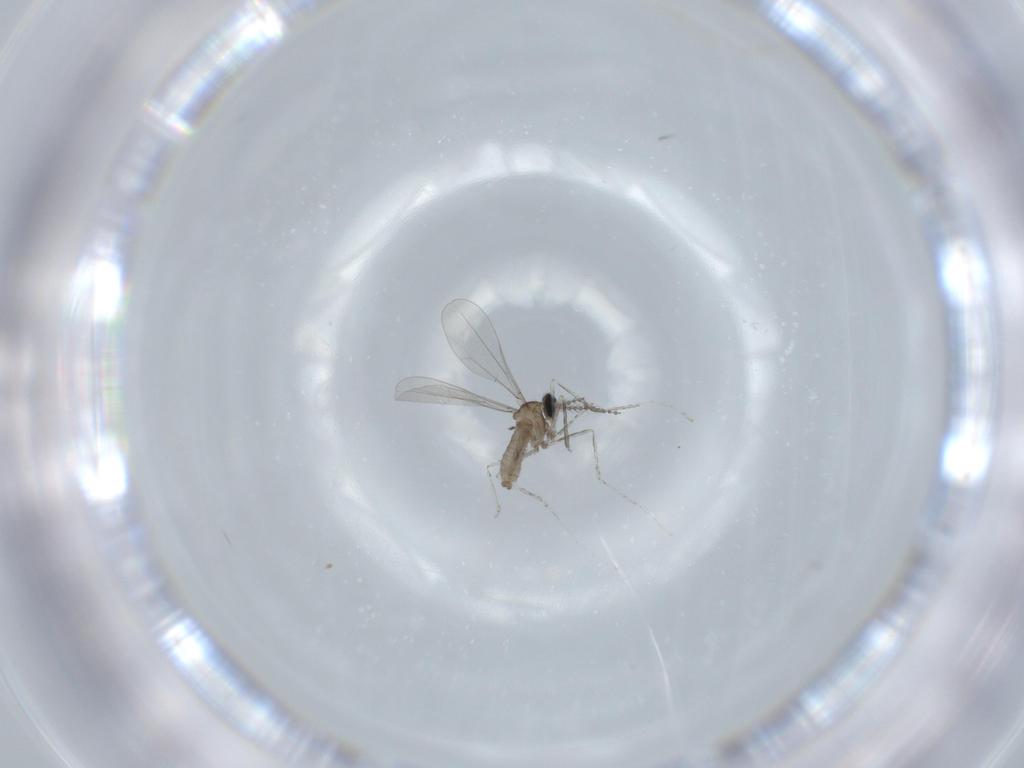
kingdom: Animalia
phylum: Arthropoda
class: Insecta
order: Diptera
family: Cecidomyiidae
